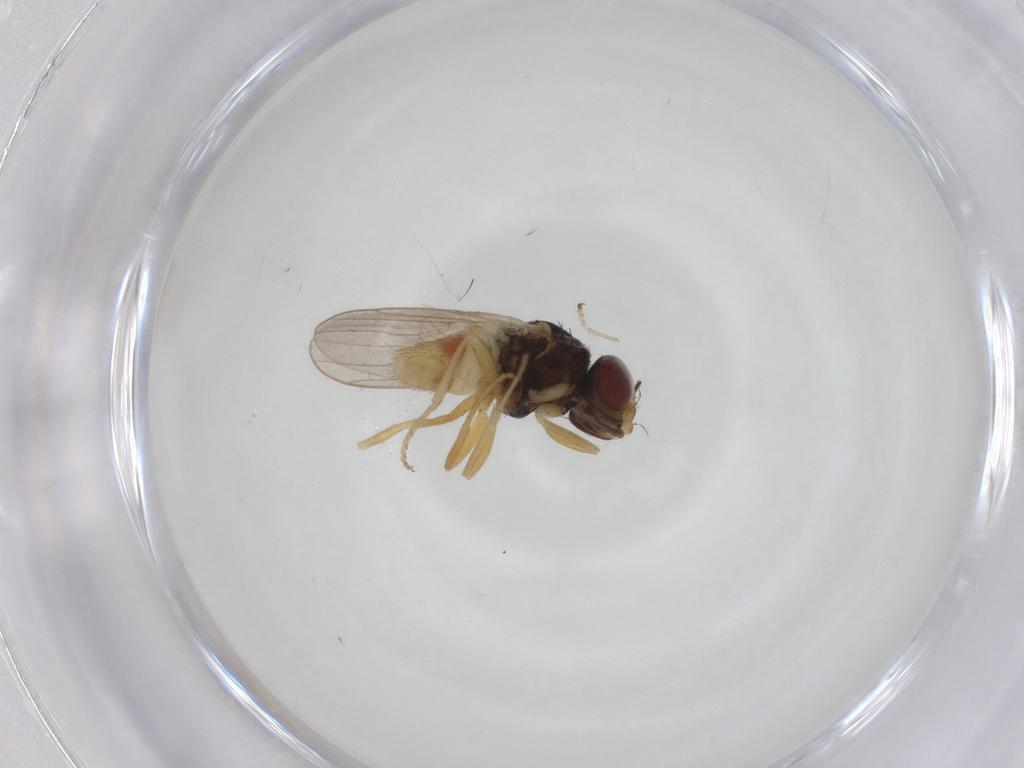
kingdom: Animalia
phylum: Arthropoda
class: Insecta
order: Diptera
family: Chloropidae
